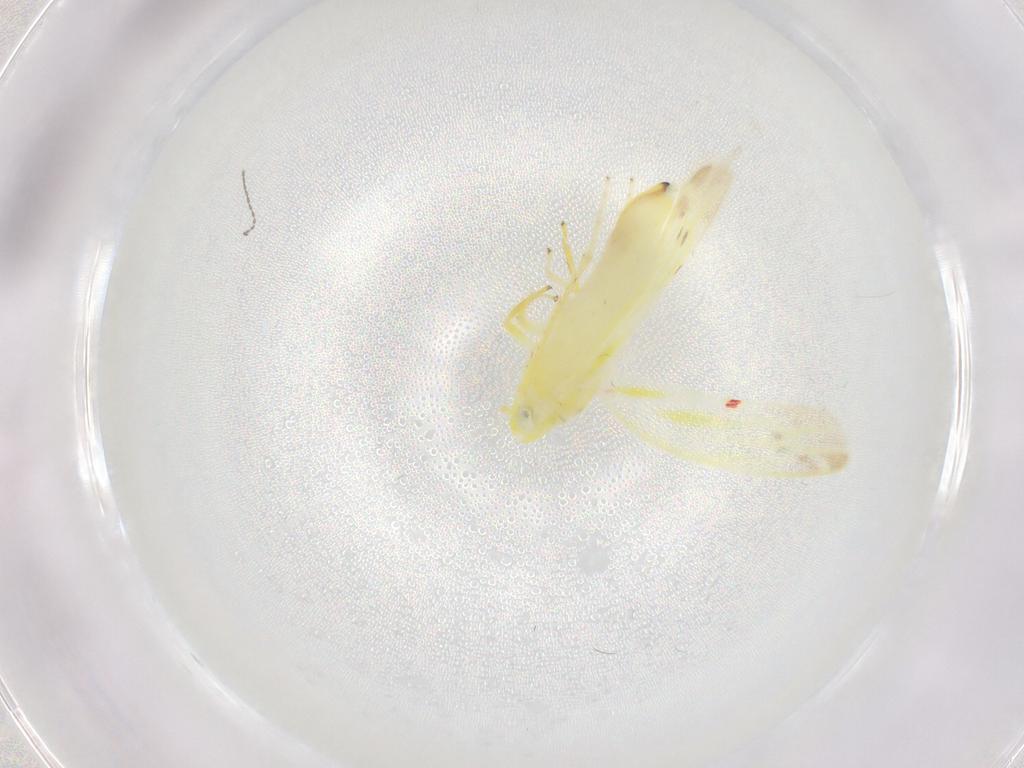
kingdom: Animalia
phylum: Arthropoda
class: Insecta
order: Hemiptera
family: Cicadellidae
